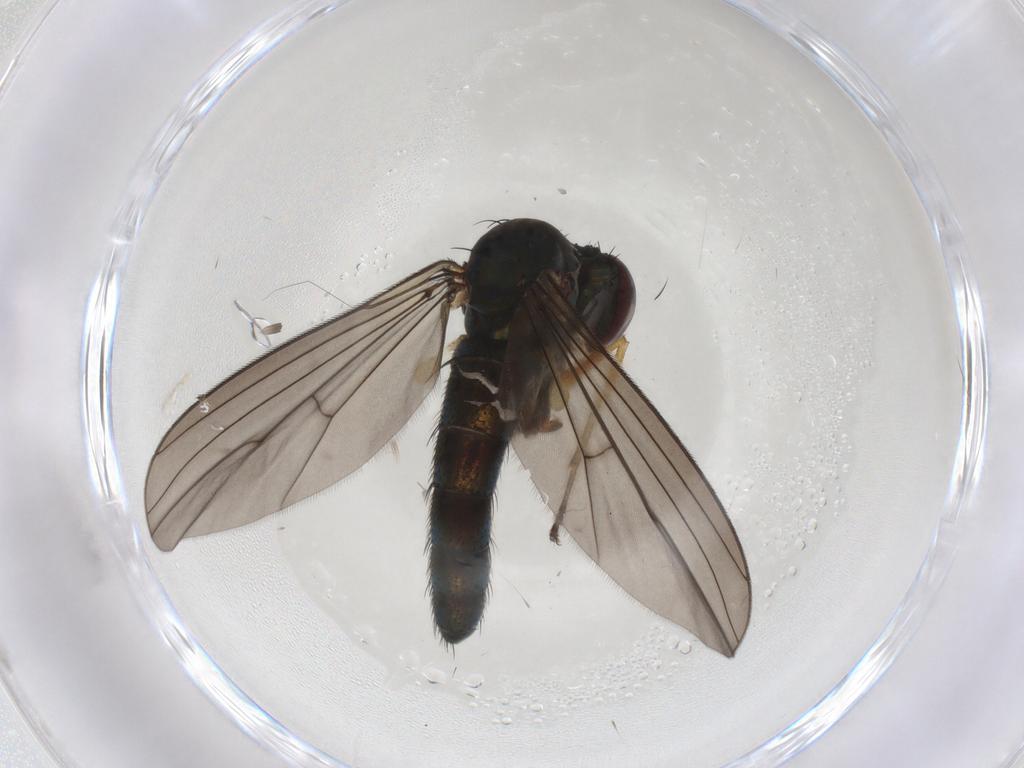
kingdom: Animalia
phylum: Arthropoda
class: Insecta
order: Diptera
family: Dolichopodidae
